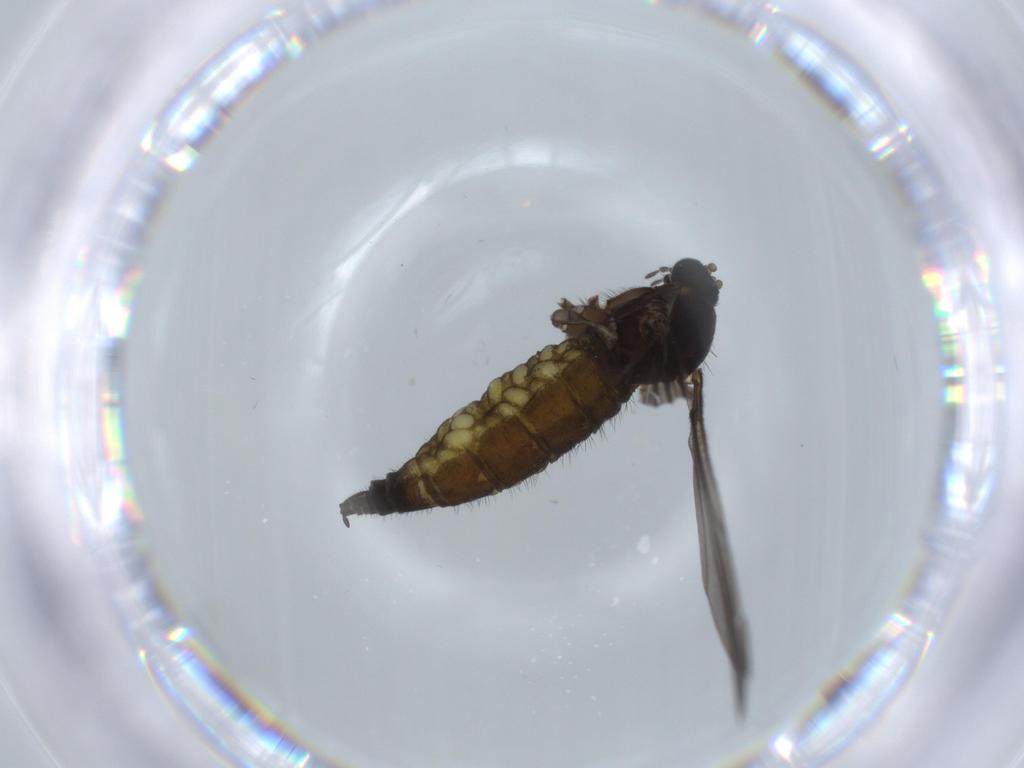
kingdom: Animalia
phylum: Arthropoda
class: Insecta
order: Diptera
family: Sciaridae
